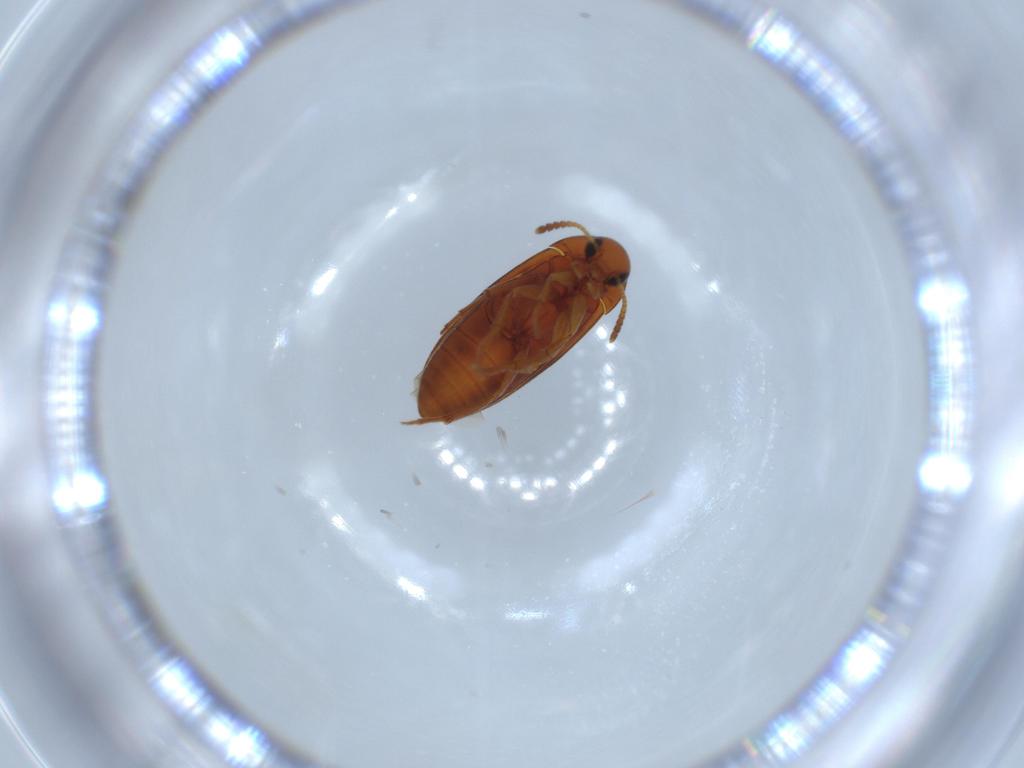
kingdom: Animalia
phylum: Arthropoda
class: Insecta
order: Coleoptera
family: Scraptiidae
